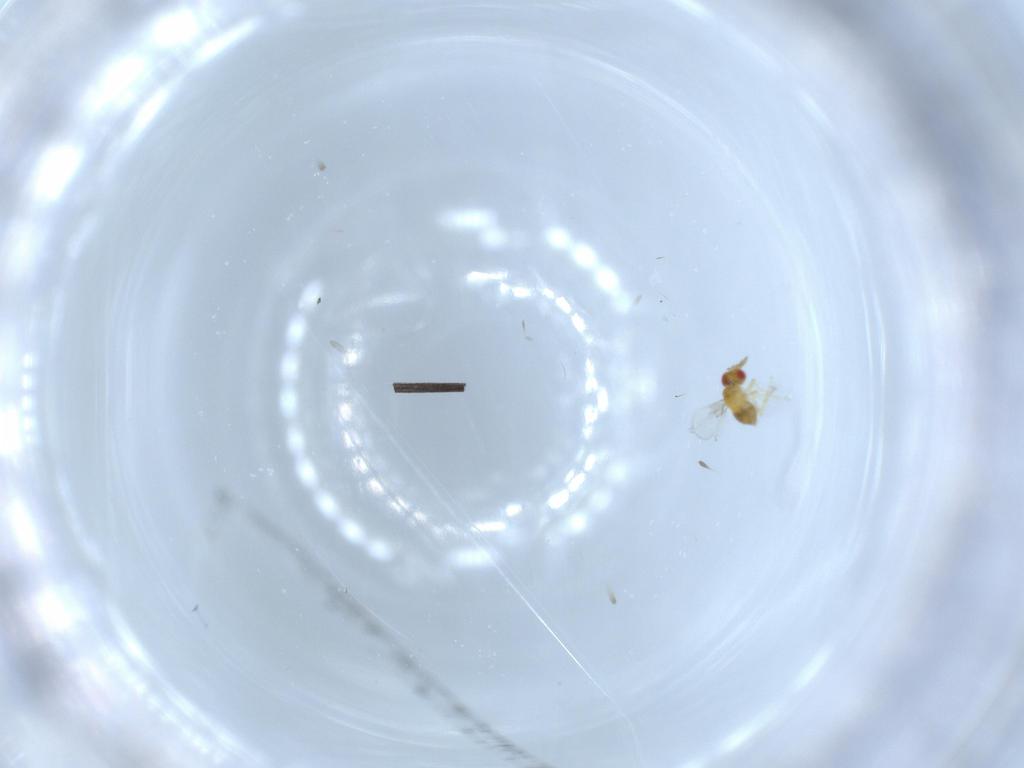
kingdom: Animalia
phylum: Arthropoda
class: Insecta
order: Hymenoptera
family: Trichogrammatidae
